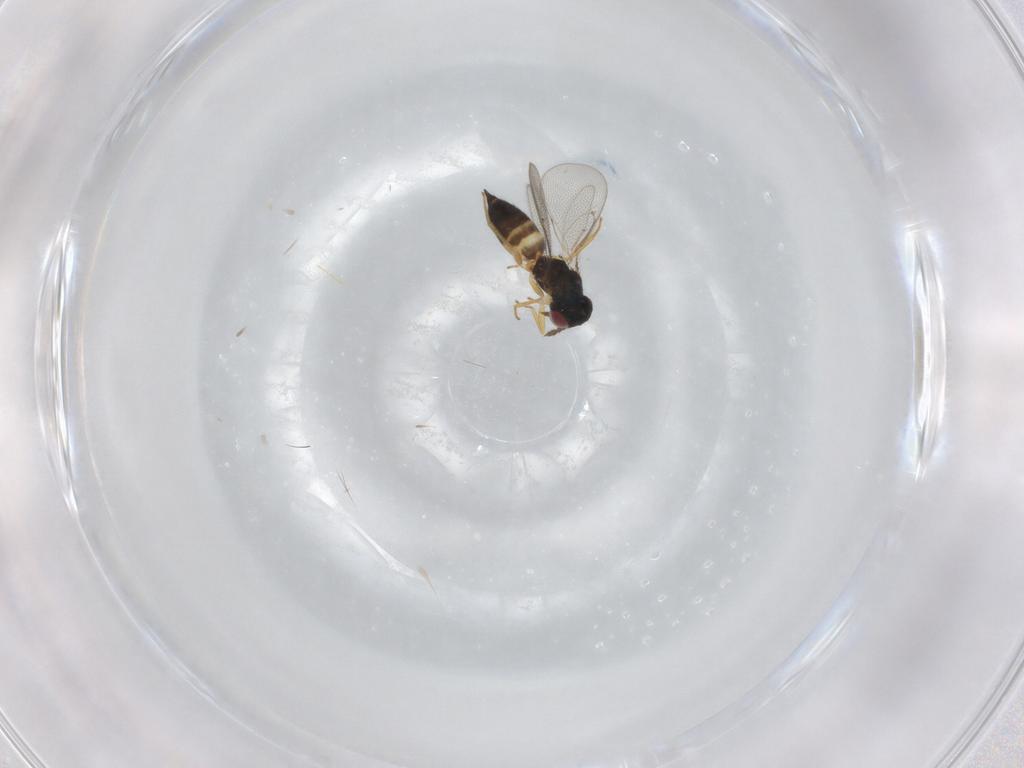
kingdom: Animalia
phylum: Arthropoda
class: Insecta
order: Hymenoptera
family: Eulophidae
